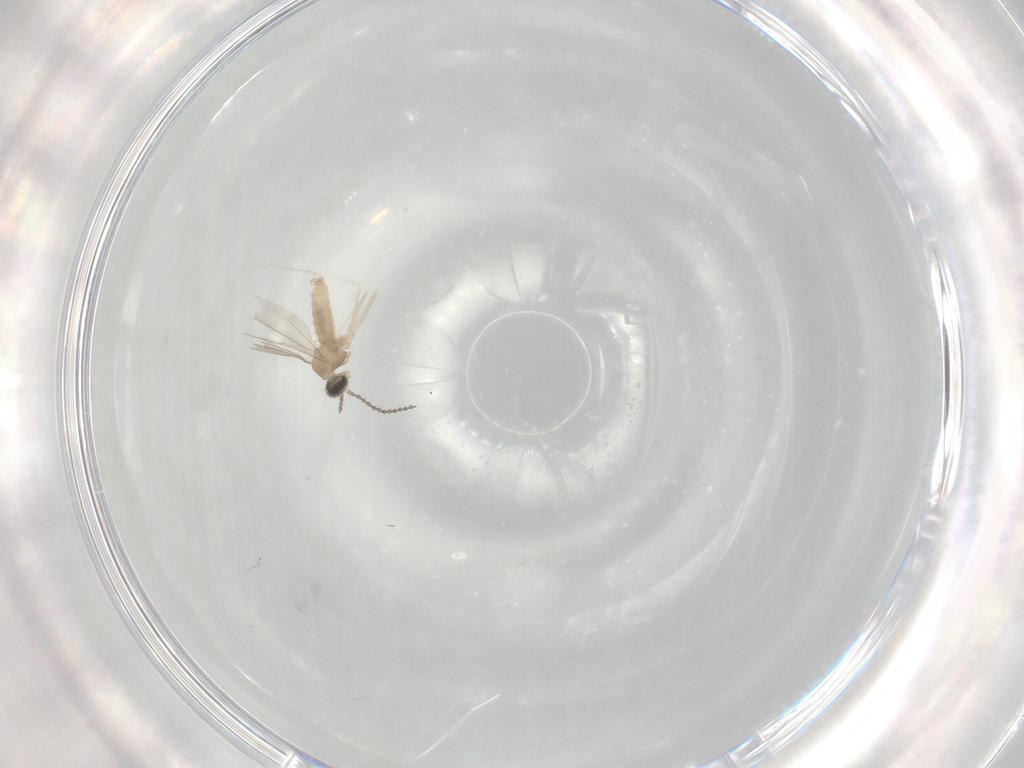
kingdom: Animalia
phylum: Arthropoda
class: Insecta
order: Diptera
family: Cecidomyiidae
